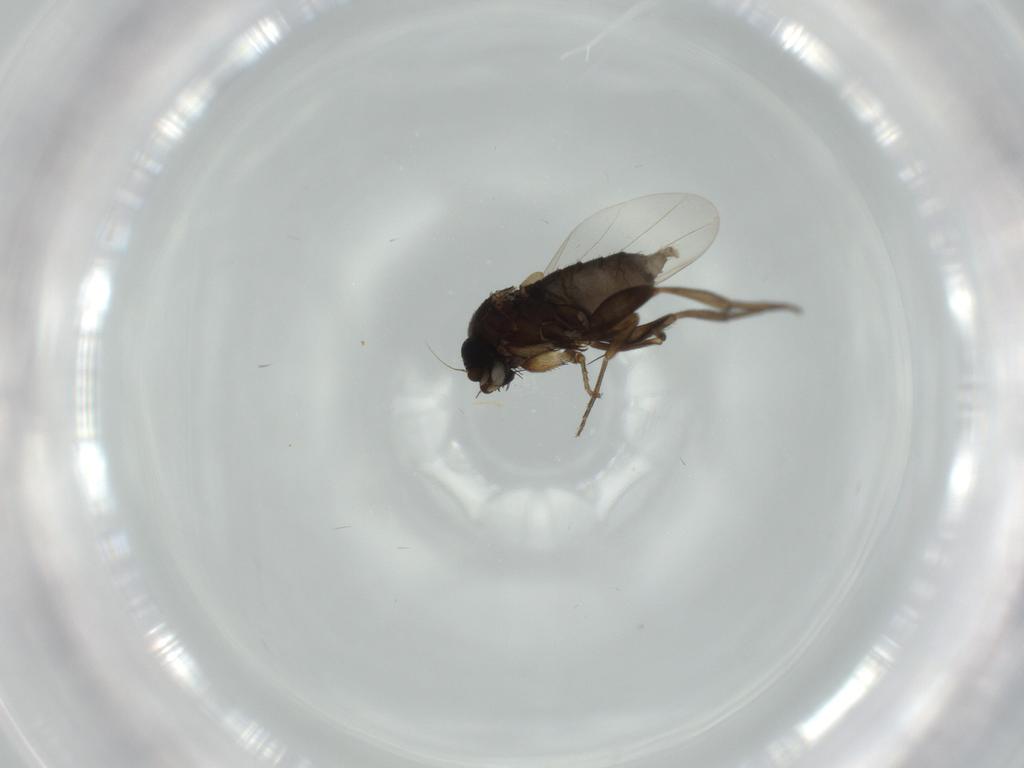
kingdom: Animalia
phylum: Arthropoda
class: Insecta
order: Diptera
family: Phoridae
